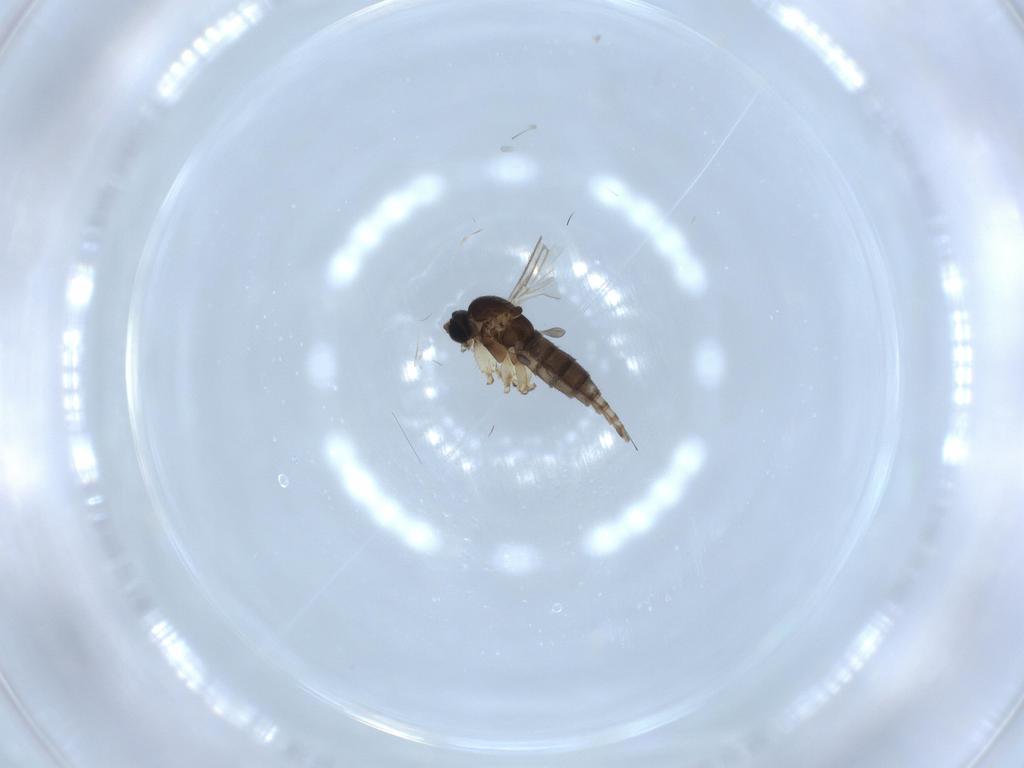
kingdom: Animalia
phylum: Arthropoda
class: Insecta
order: Diptera
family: Sciaridae
